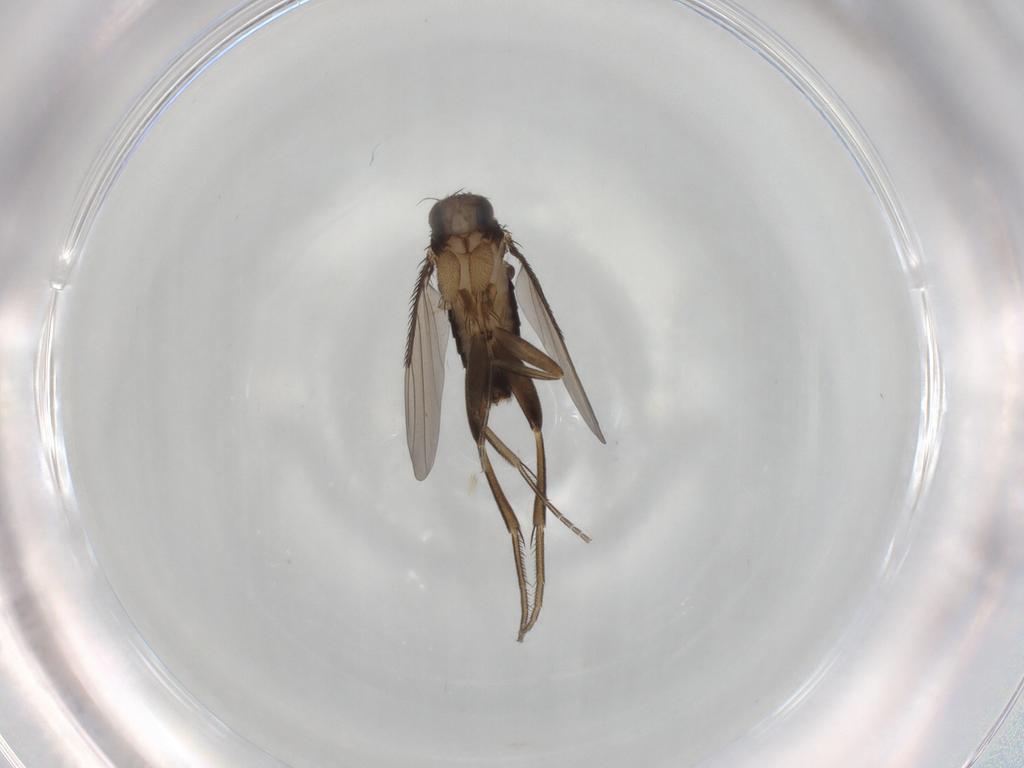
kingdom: Animalia
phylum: Arthropoda
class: Insecta
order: Diptera
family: Phoridae
